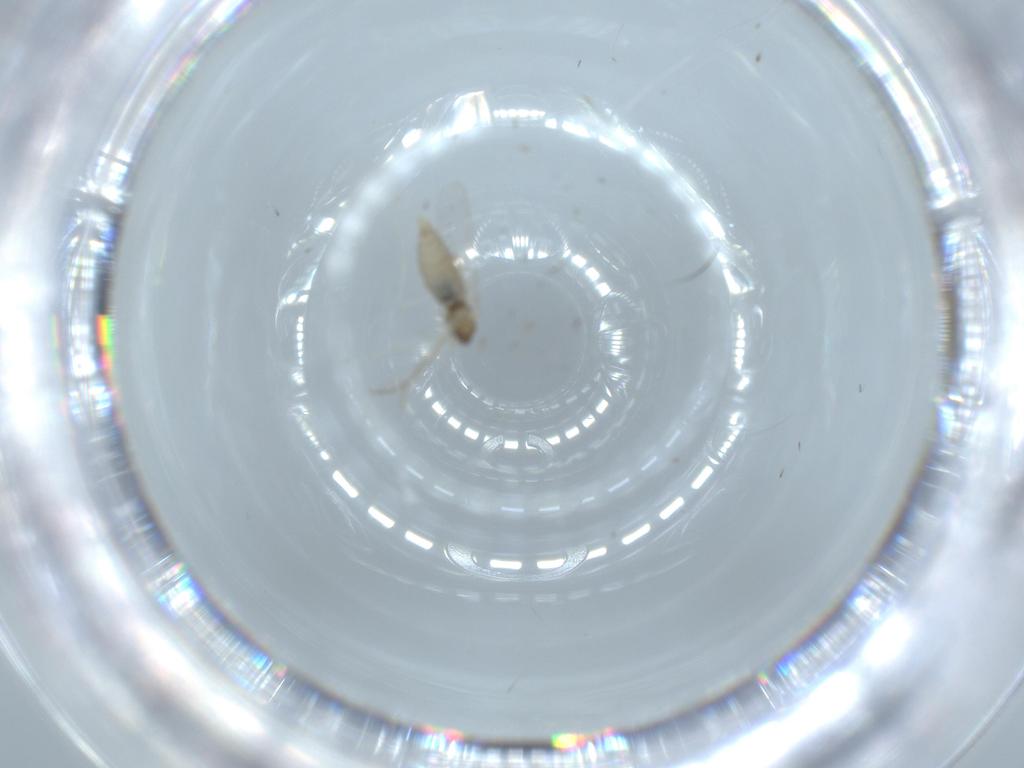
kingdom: Animalia
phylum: Arthropoda
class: Insecta
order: Diptera
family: Cecidomyiidae
